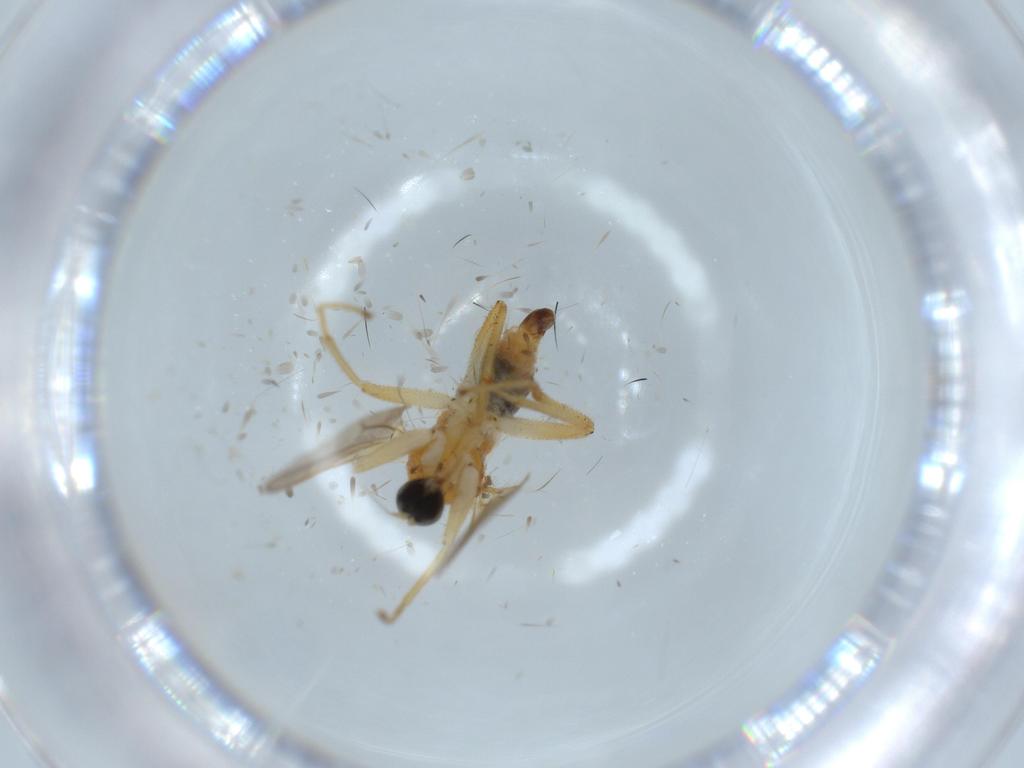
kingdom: Animalia
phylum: Arthropoda
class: Insecta
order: Diptera
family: Hybotidae
